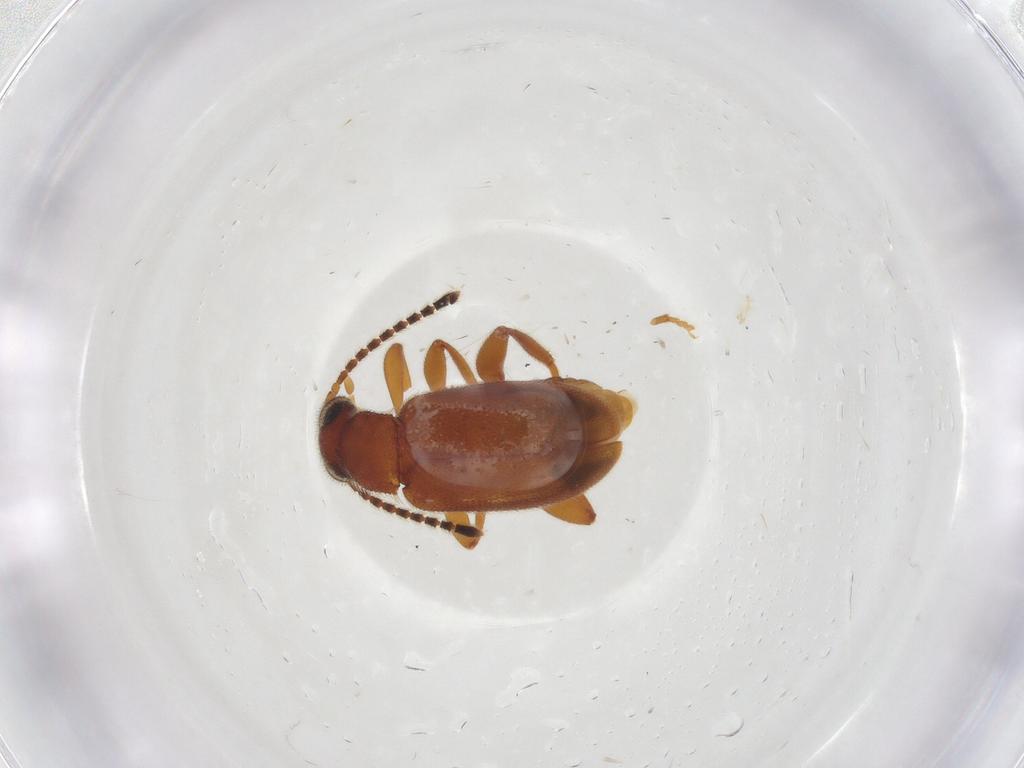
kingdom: Animalia
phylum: Arthropoda
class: Insecta
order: Coleoptera
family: Aderidae
